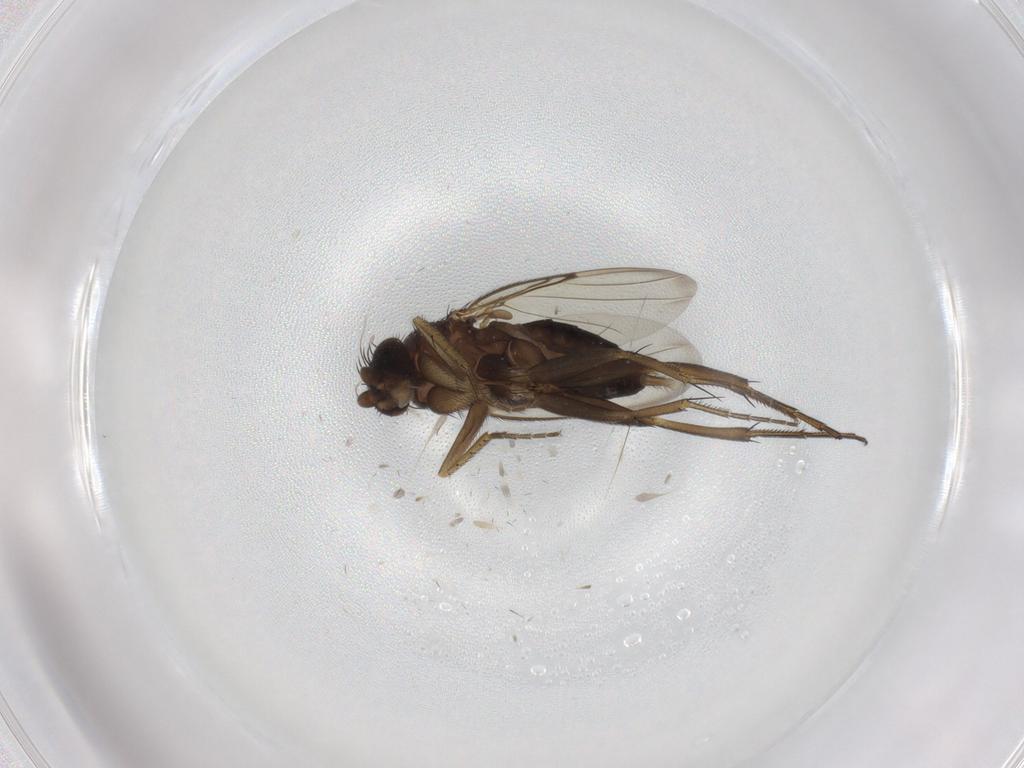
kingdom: Animalia
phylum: Arthropoda
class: Insecta
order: Diptera
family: Phoridae
